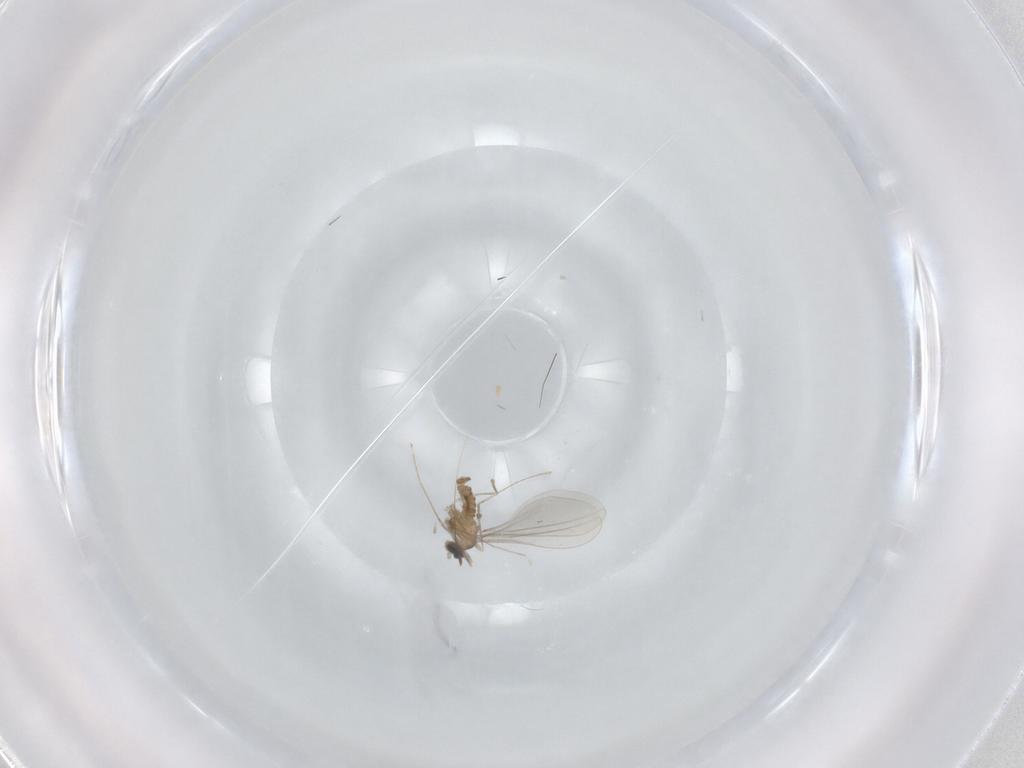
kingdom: Animalia
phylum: Arthropoda
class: Insecta
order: Diptera
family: Cecidomyiidae
